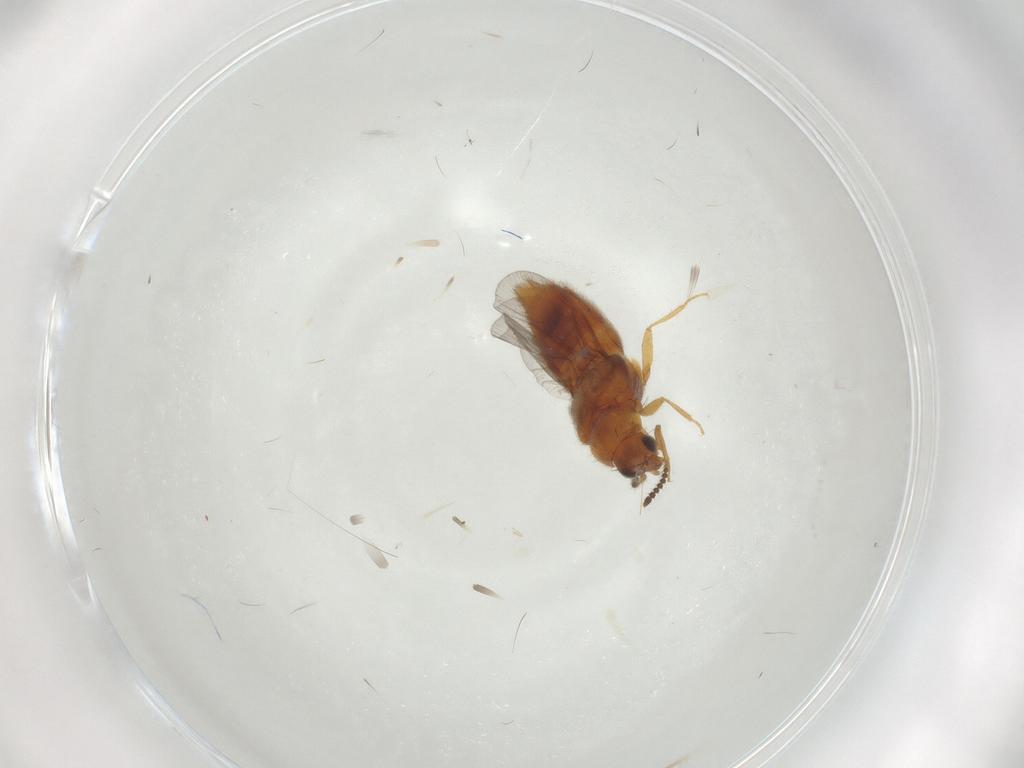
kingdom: Animalia
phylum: Arthropoda
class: Insecta
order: Coleoptera
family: Staphylinidae
